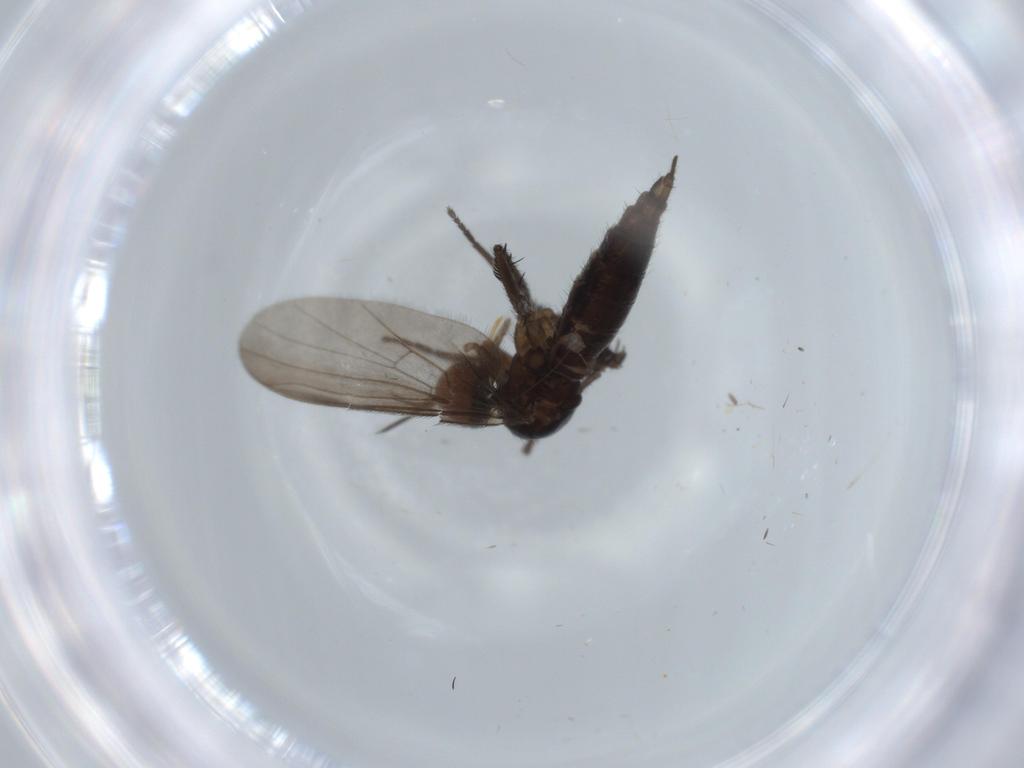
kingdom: Animalia
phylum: Arthropoda
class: Insecta
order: Diptera
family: Empididae
